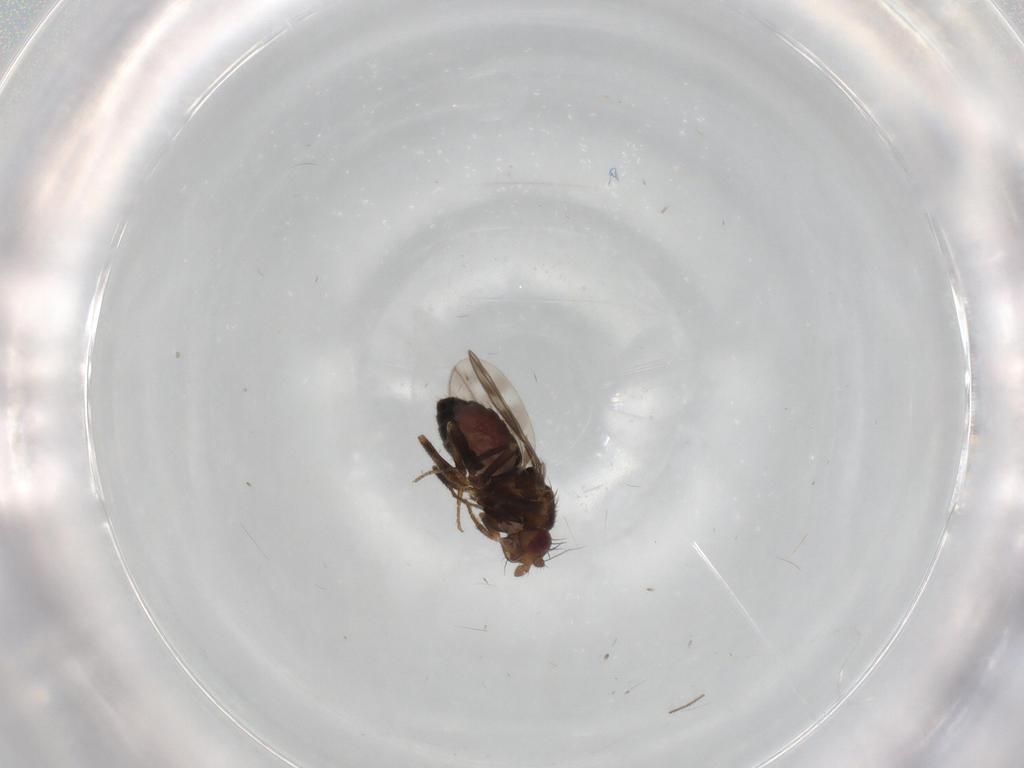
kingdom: Animalia
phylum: Arthropoda
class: Insecta
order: Diptera
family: Sphaeroceridae
